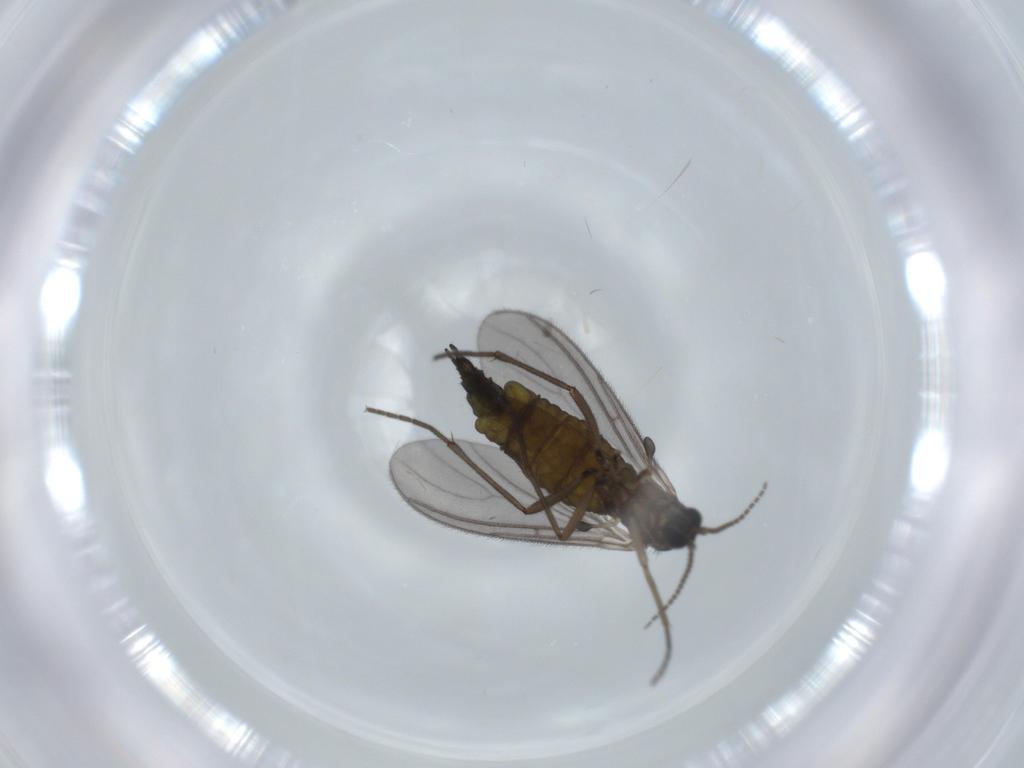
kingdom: Animalia
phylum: Arthropoda
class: Insecta
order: Diptera
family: Sciaridae
